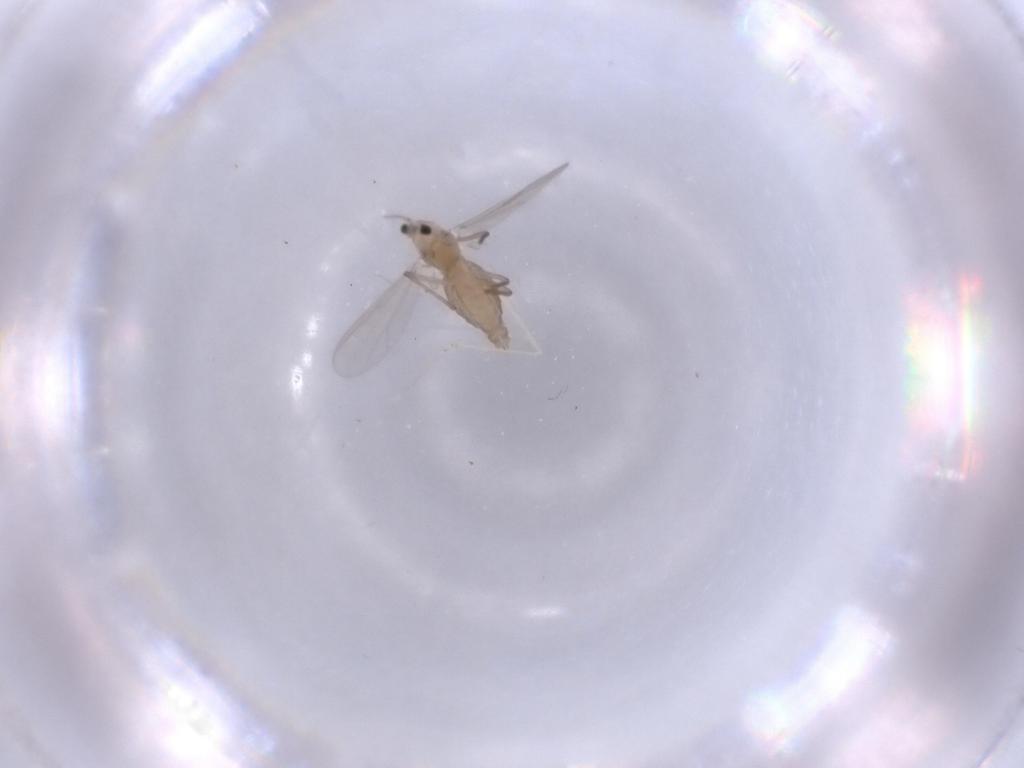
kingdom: Animalia
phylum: Arthropoda
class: Insecta
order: Diptera
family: Chironomidae
